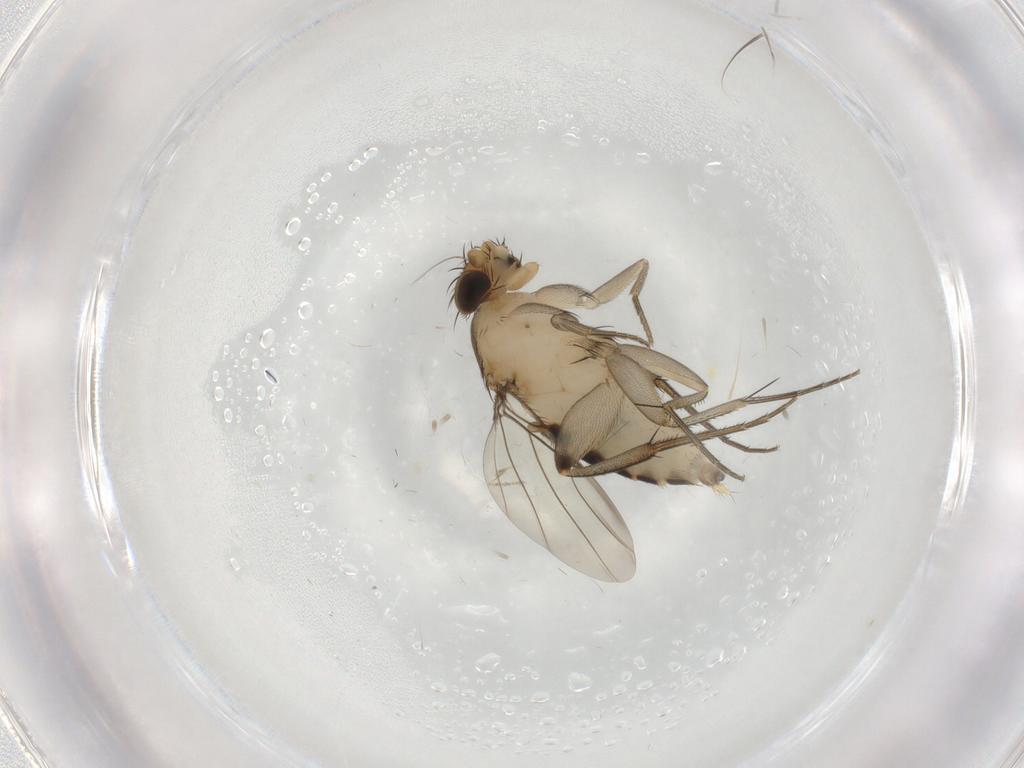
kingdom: Animalia
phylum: Arthropoda
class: Insecta
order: Diptera
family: Phoridae
